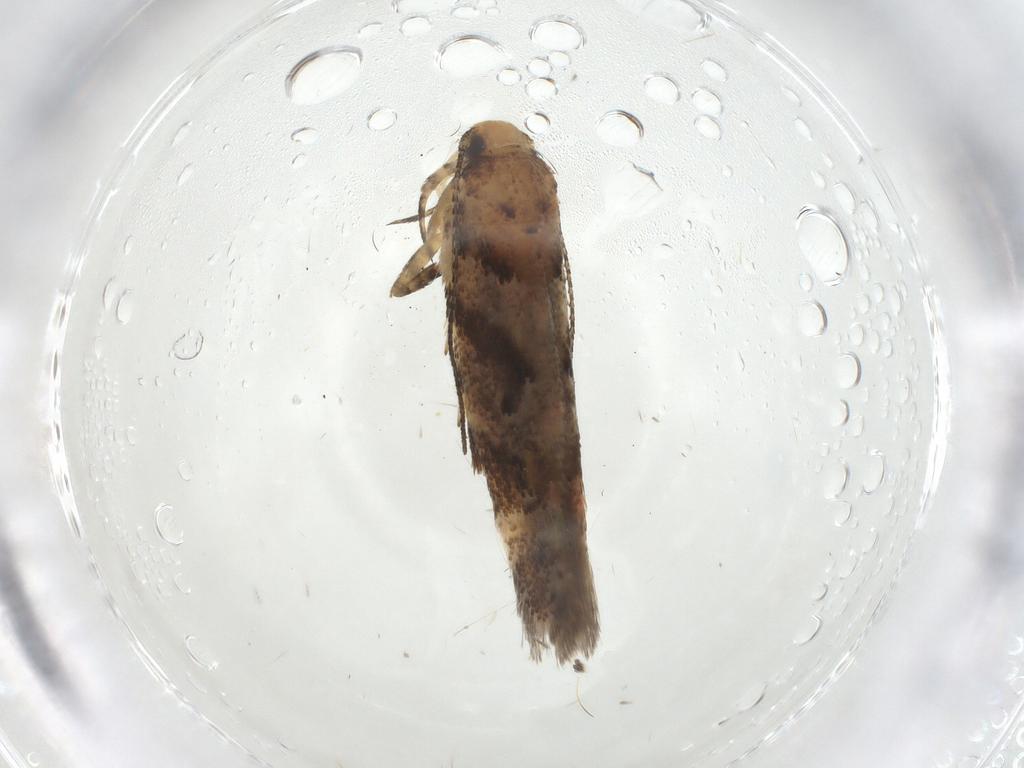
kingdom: Animalia
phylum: Arthropoda
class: Insecta
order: Lepidoptera
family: Gelechiidae
